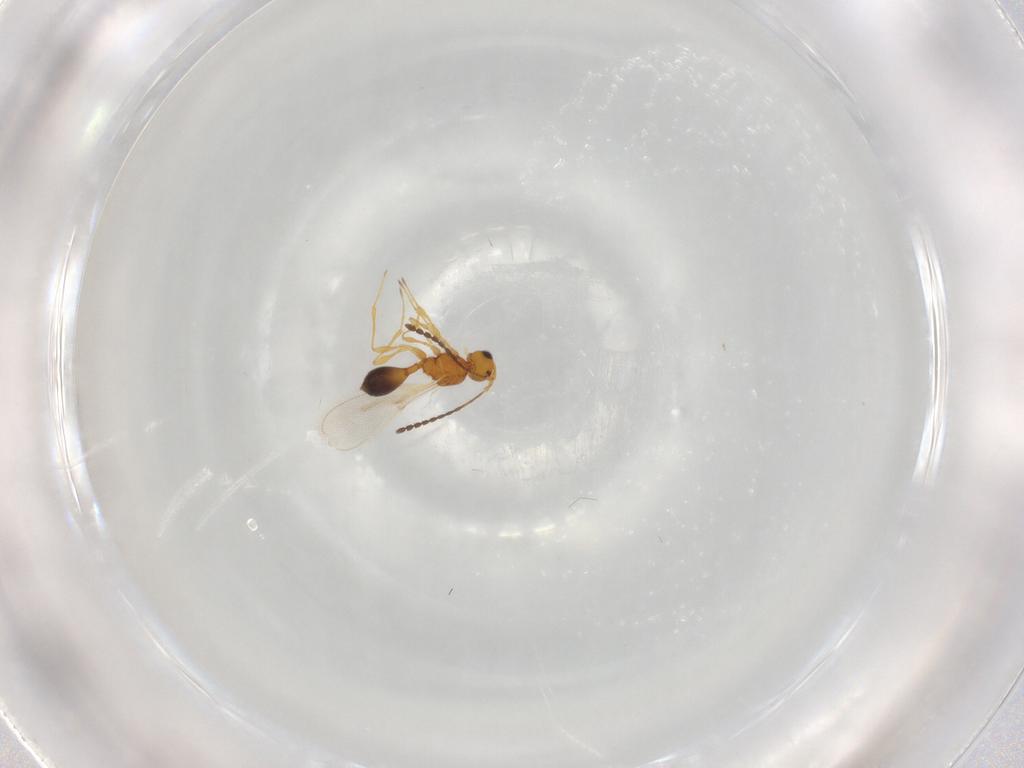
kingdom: Animalia
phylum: Arthropoda
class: Insecta
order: Hymenoptera
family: Diapriidae
